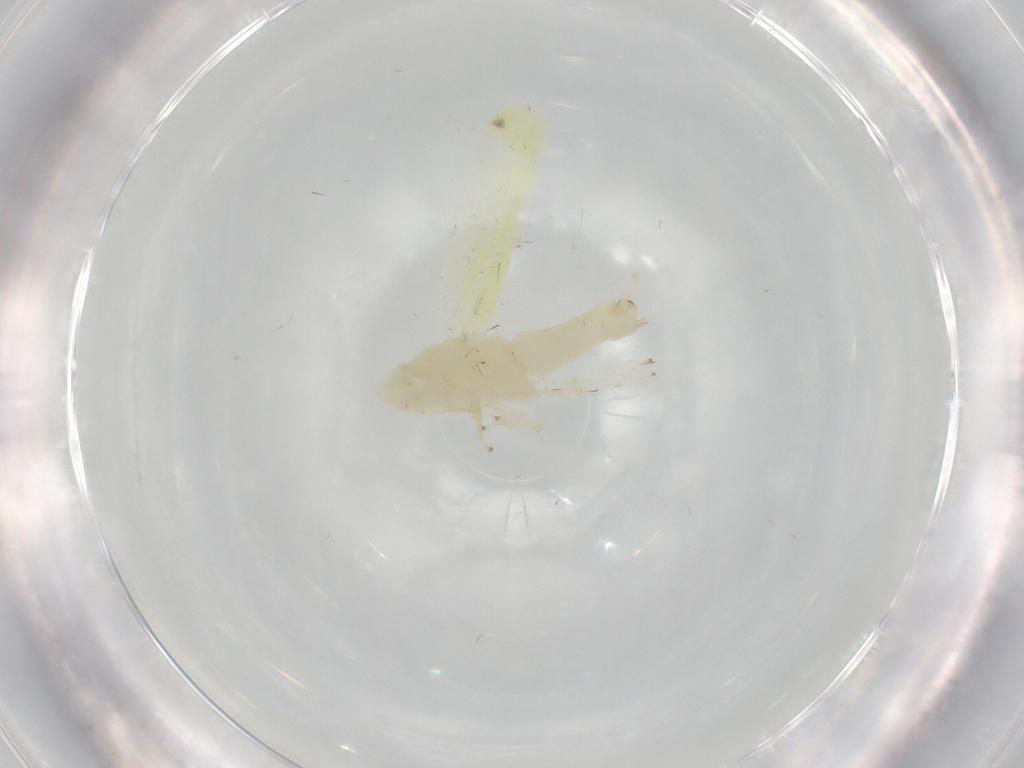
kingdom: Animalia
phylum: Arthropoda
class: Insecta
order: Hemiptera
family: Cicadellidae
